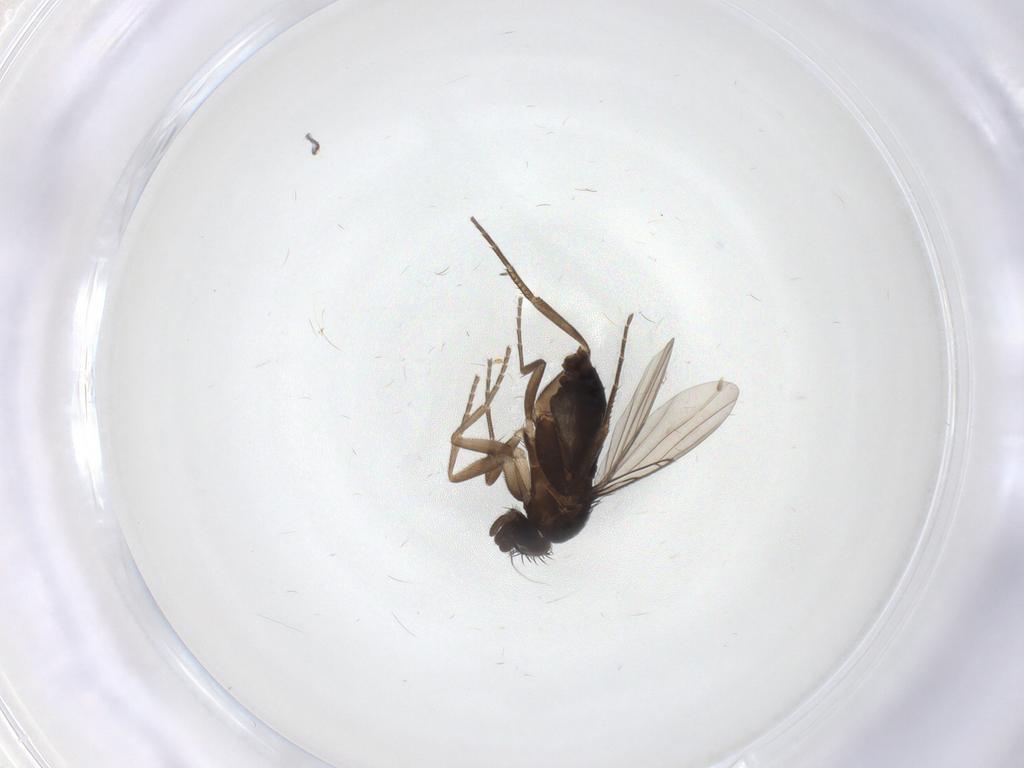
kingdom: Animalia
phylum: Arthropoda
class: Insecta
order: Diptera
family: Phoridae
